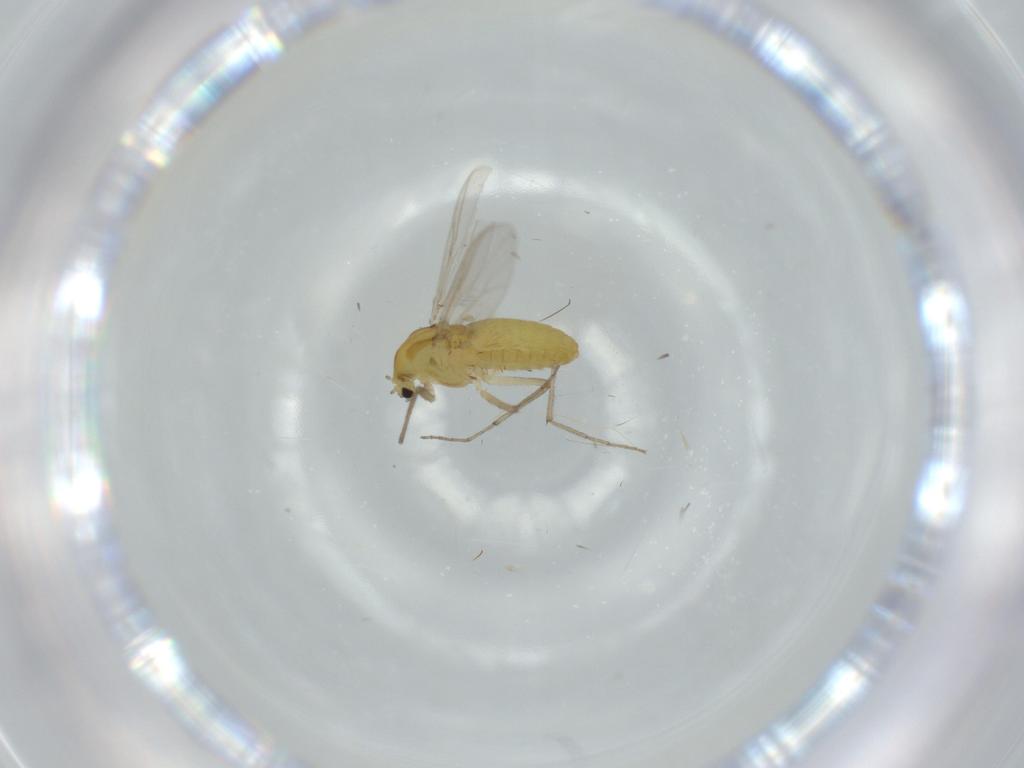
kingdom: Animalia
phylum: Arthropoda
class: Insecta
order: Diptera
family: Chironomidae
